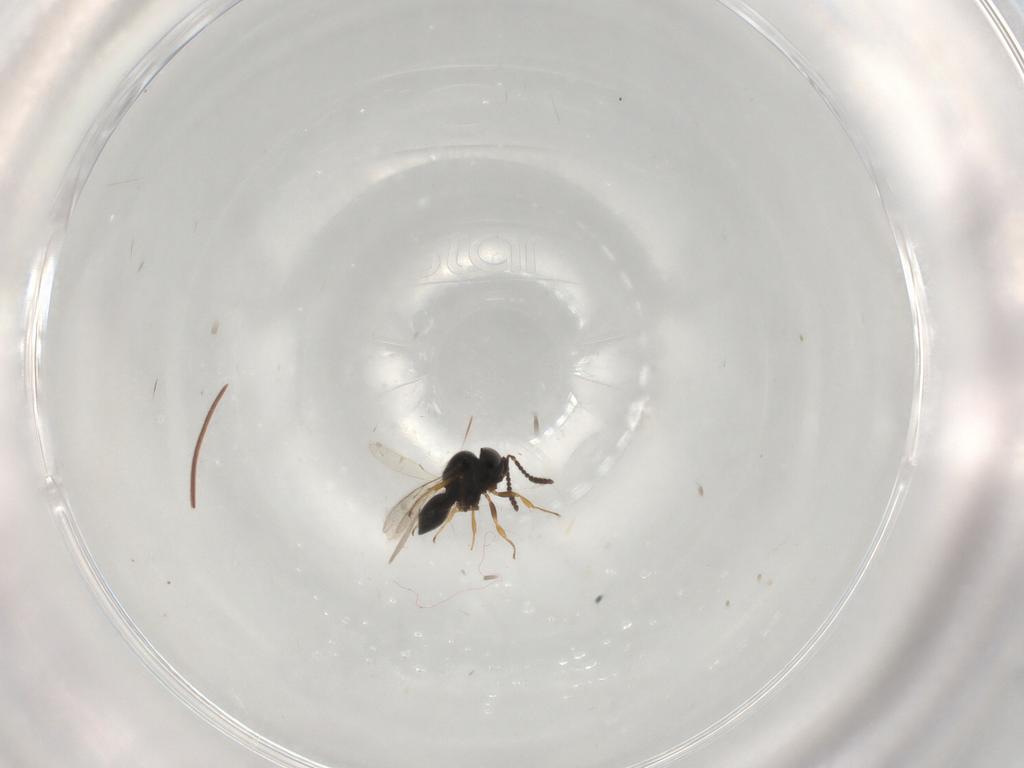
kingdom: Animalia
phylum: Arthropoda
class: Insecta
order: Hymenoptera
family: Scelionidae
